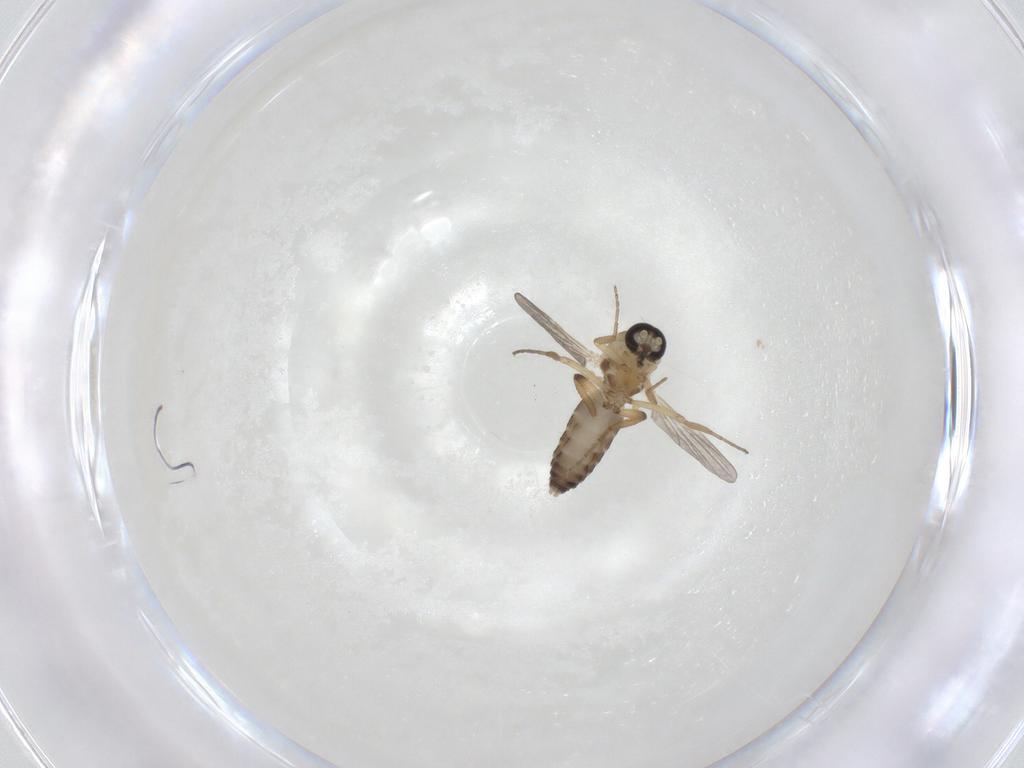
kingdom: Animalia
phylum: Arthropoda
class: Insecta
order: Diptera
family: Ceratopogonidae
